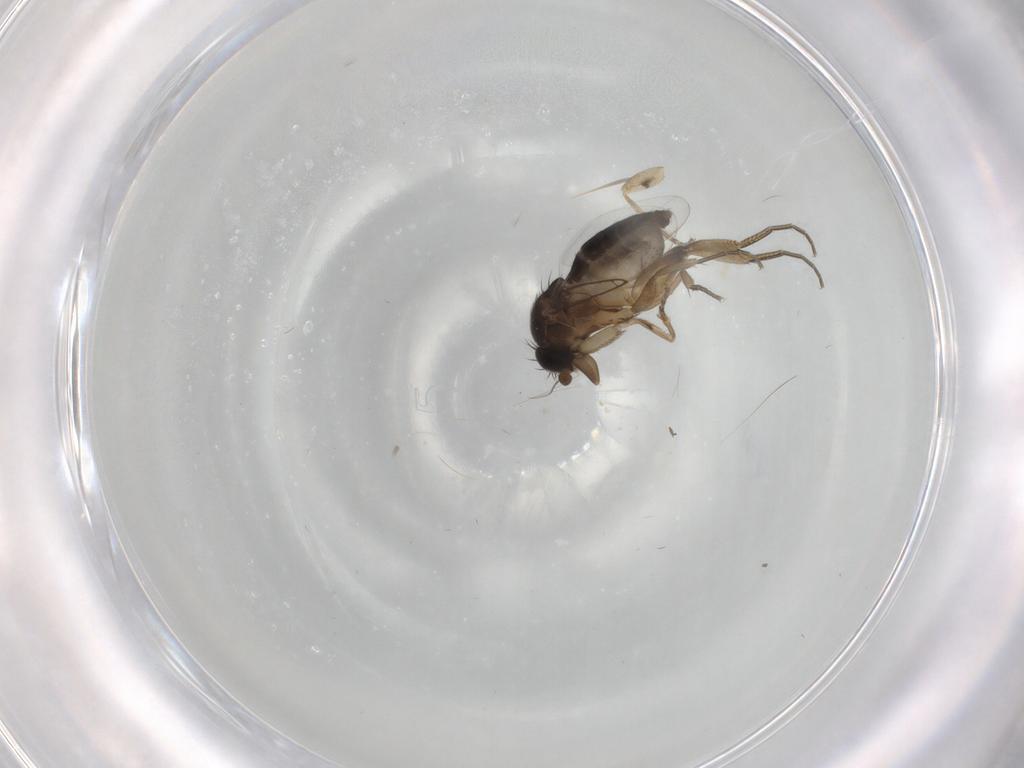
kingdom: Animalia
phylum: Arthropoda
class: Insecta
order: Diptera
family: Phoridae
